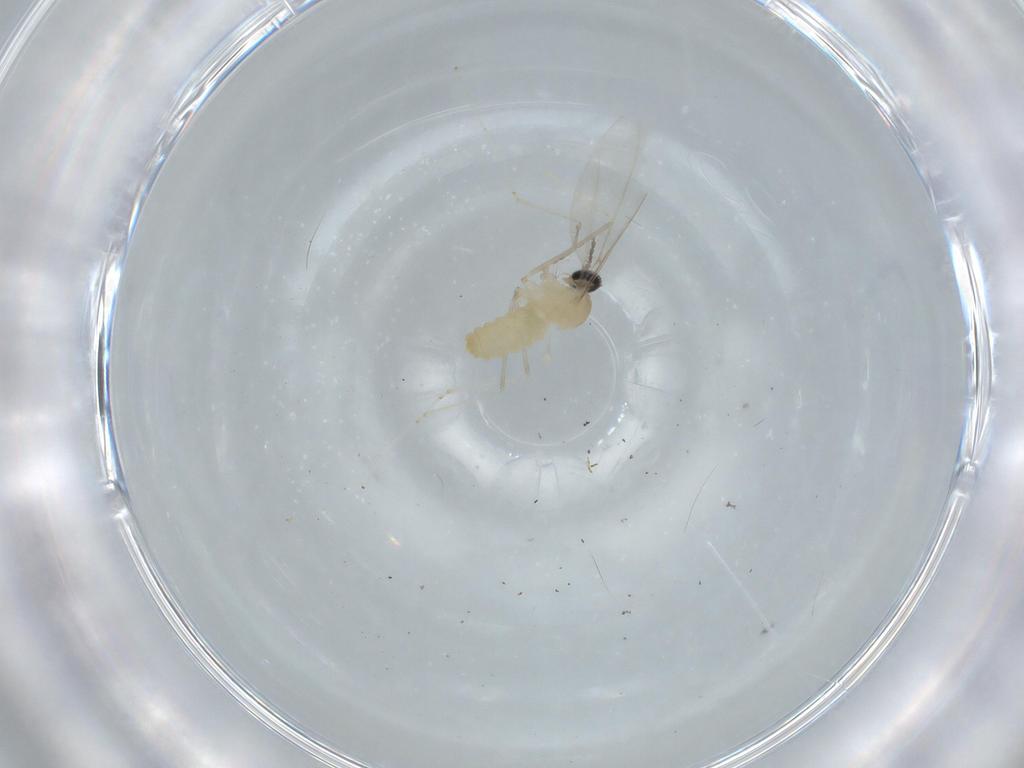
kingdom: Animalia
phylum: Arthropoda
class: Insecta
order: Diptera
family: Cecidomyiidae
